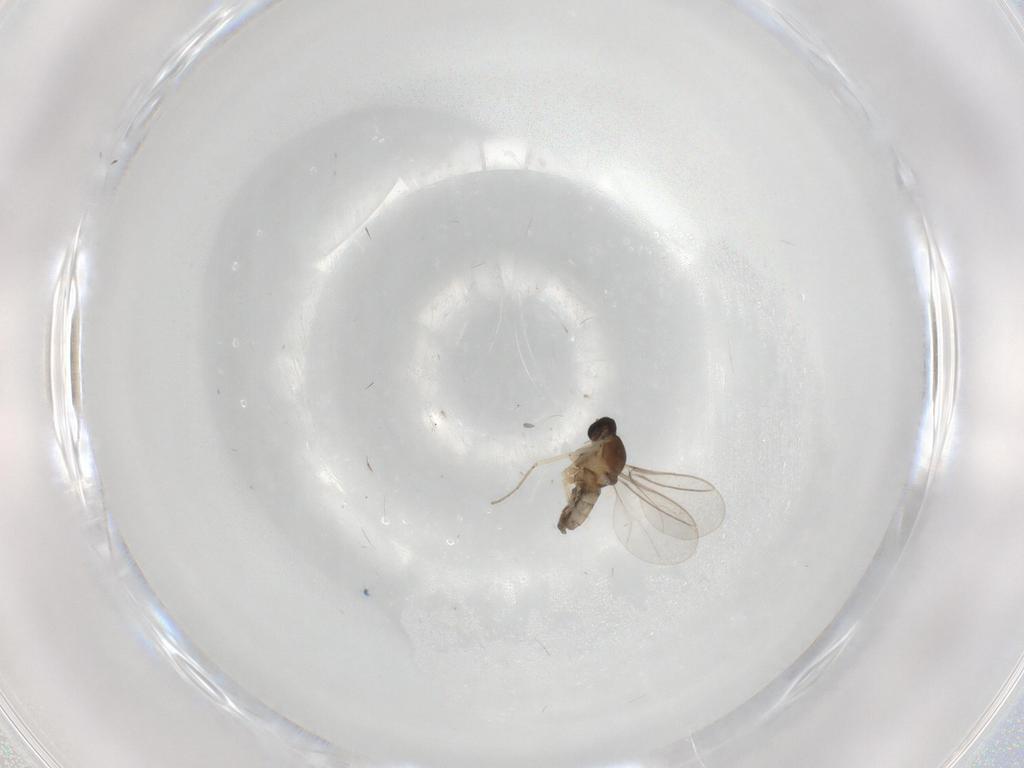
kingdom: Animalia
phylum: Arthropoda
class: Insecta
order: Diptera
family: Cecidomyiidae
